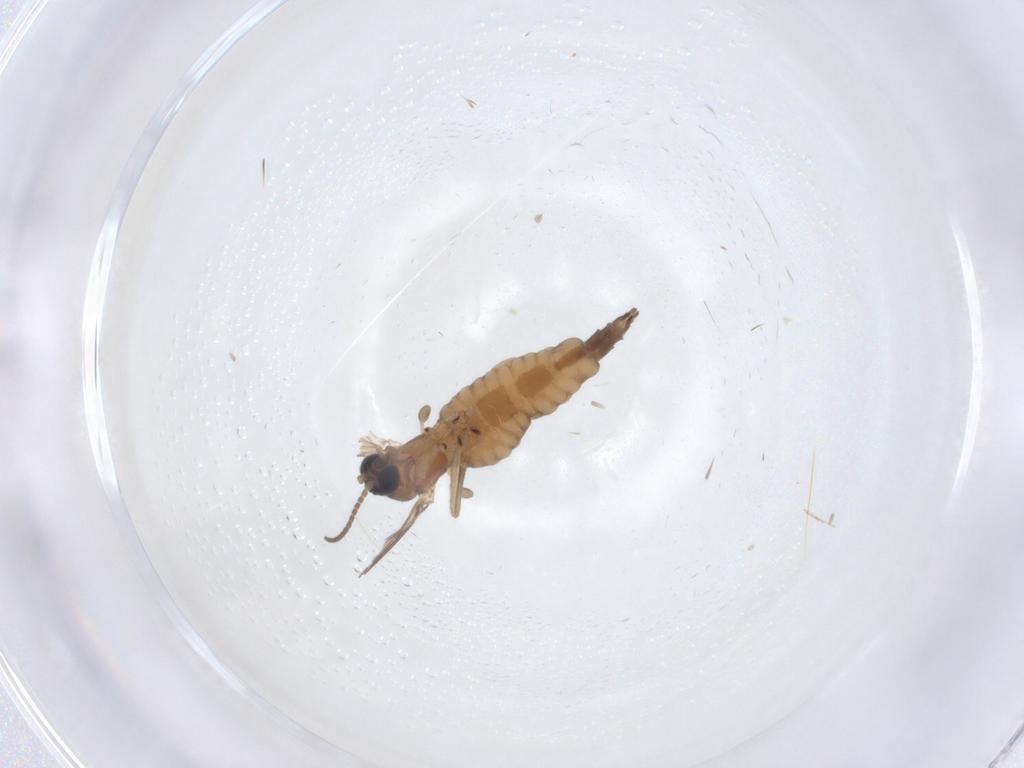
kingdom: Animalia
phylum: Arthropoda
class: Insecta
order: Diptera
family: Sciaridae
